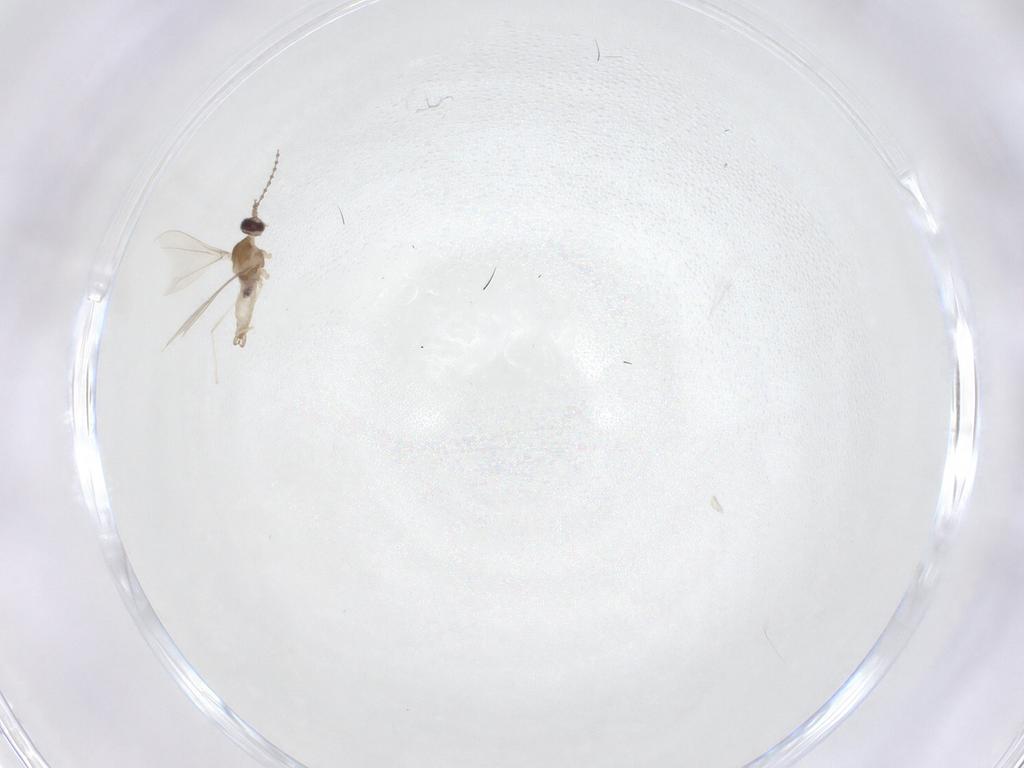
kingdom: Animalia
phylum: Arthropoda
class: Insecta
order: Diptera
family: Cecidomyiidae
